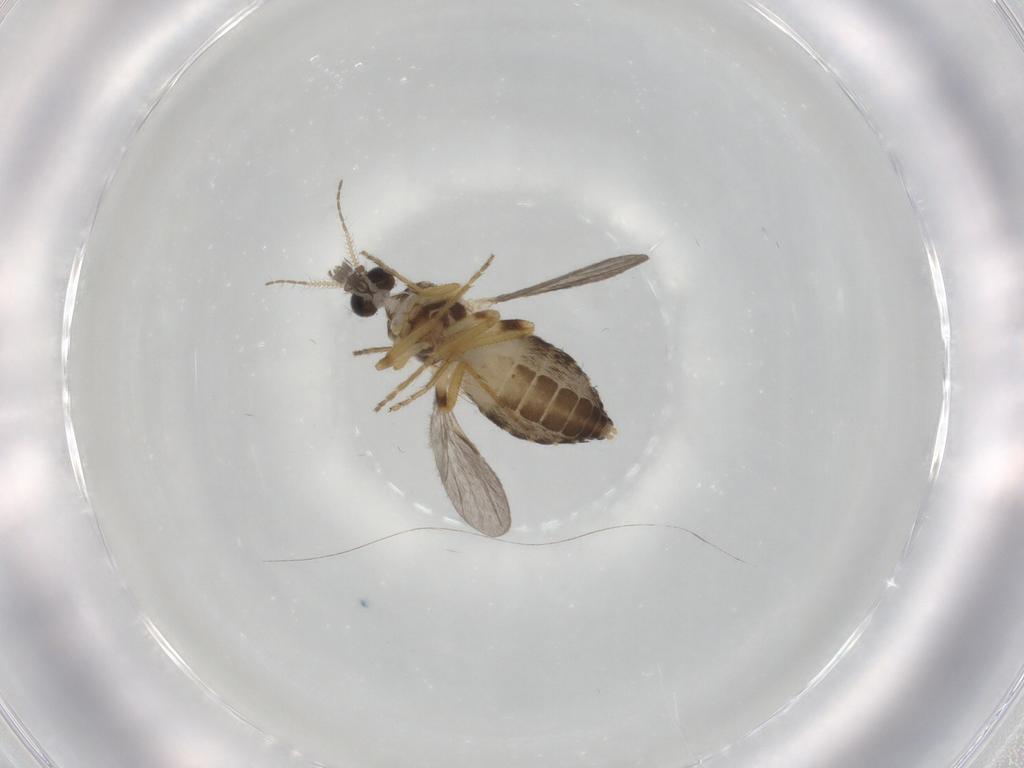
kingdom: Animalia
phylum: Arthropoda
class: Insecta
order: Diptera
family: Ceratopogonidae
